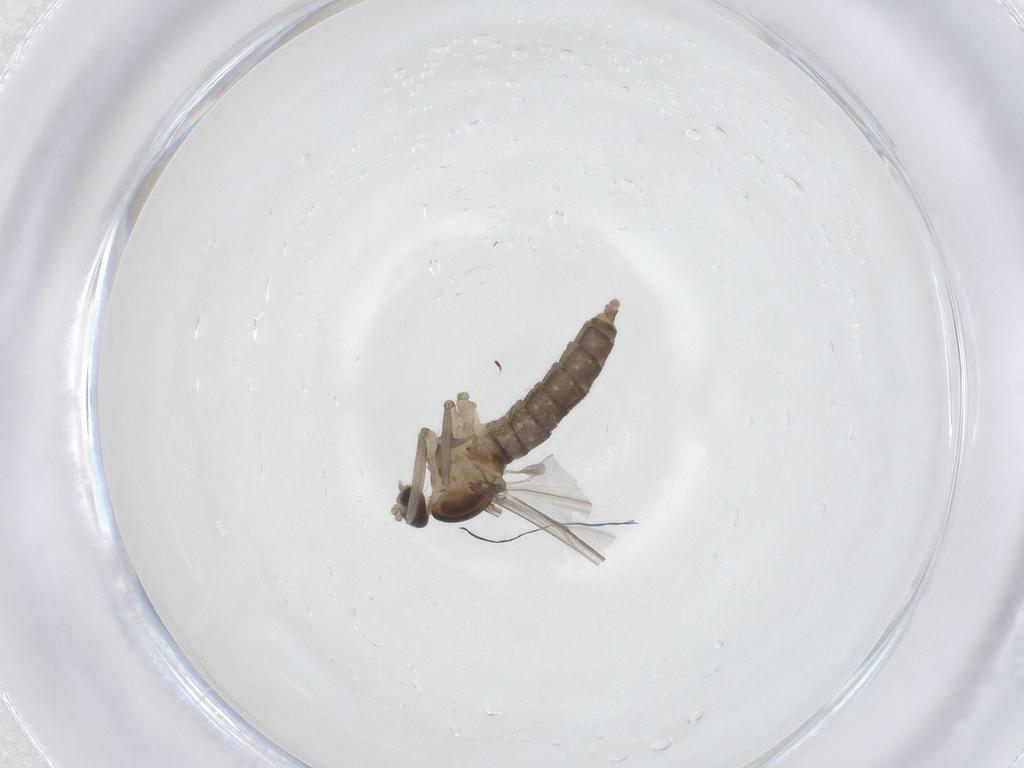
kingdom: Animalia
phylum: Arthropoda
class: Insecta
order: Diptera
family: Cecidomyiidae
